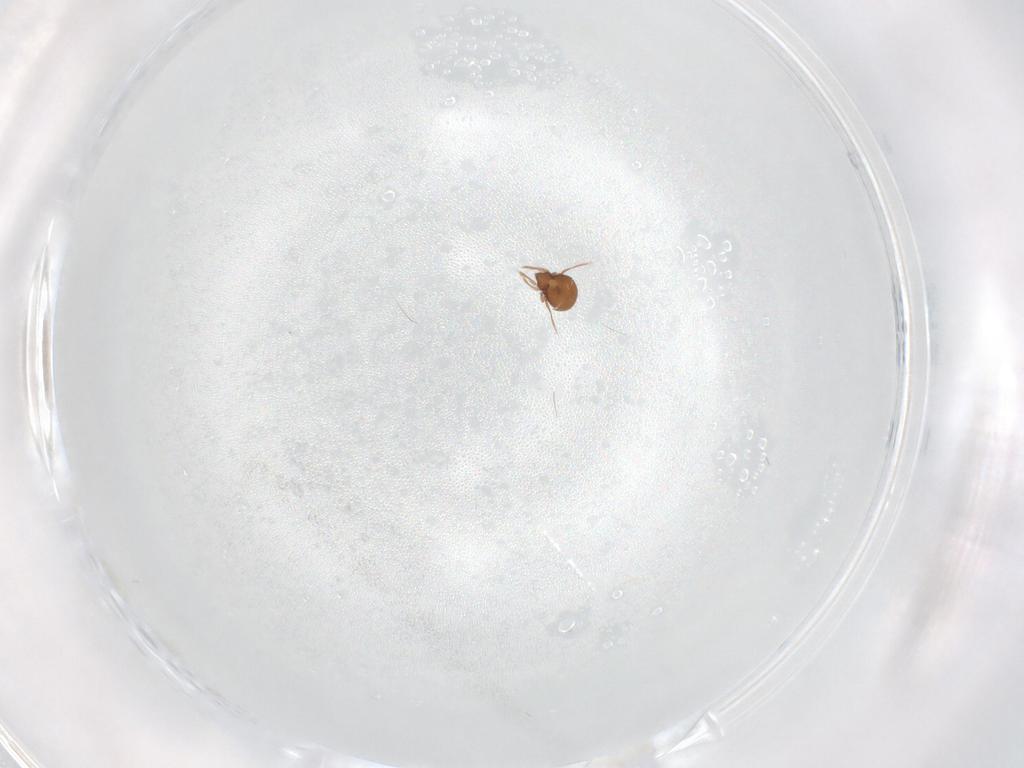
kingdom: Animalia
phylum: Arthropoda
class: Arachnida
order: Sarcoptiformes
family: Oribatulidae
